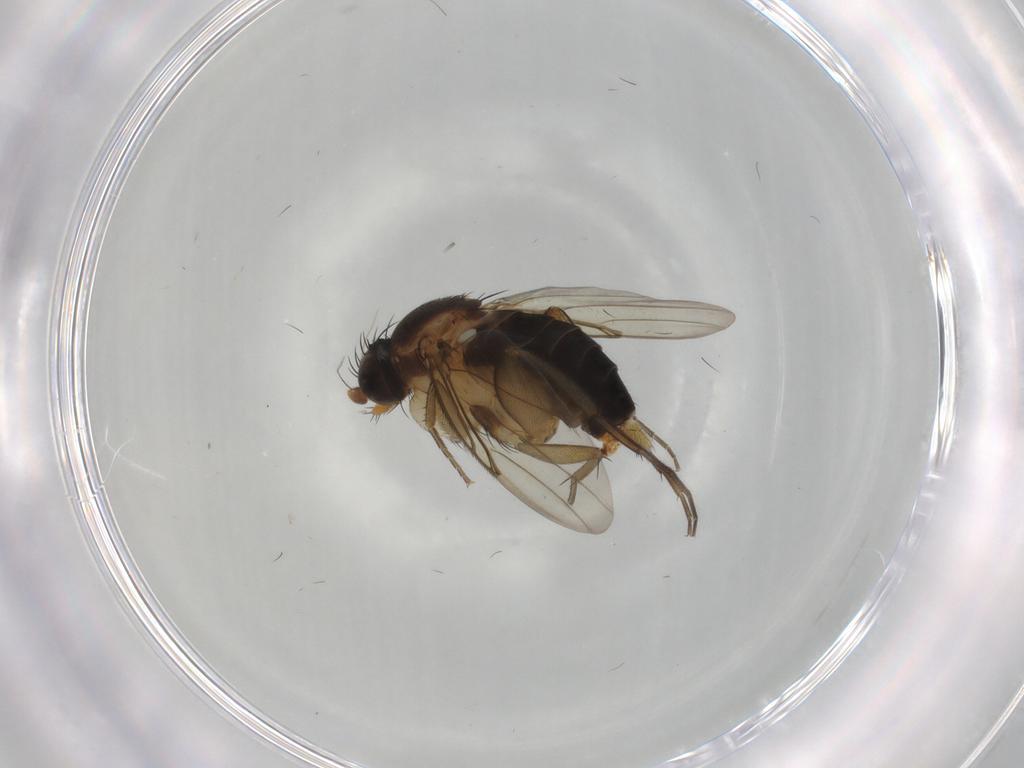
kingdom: Animalia
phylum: Arthropoda
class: Insecta
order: Diptera
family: Phoridae
